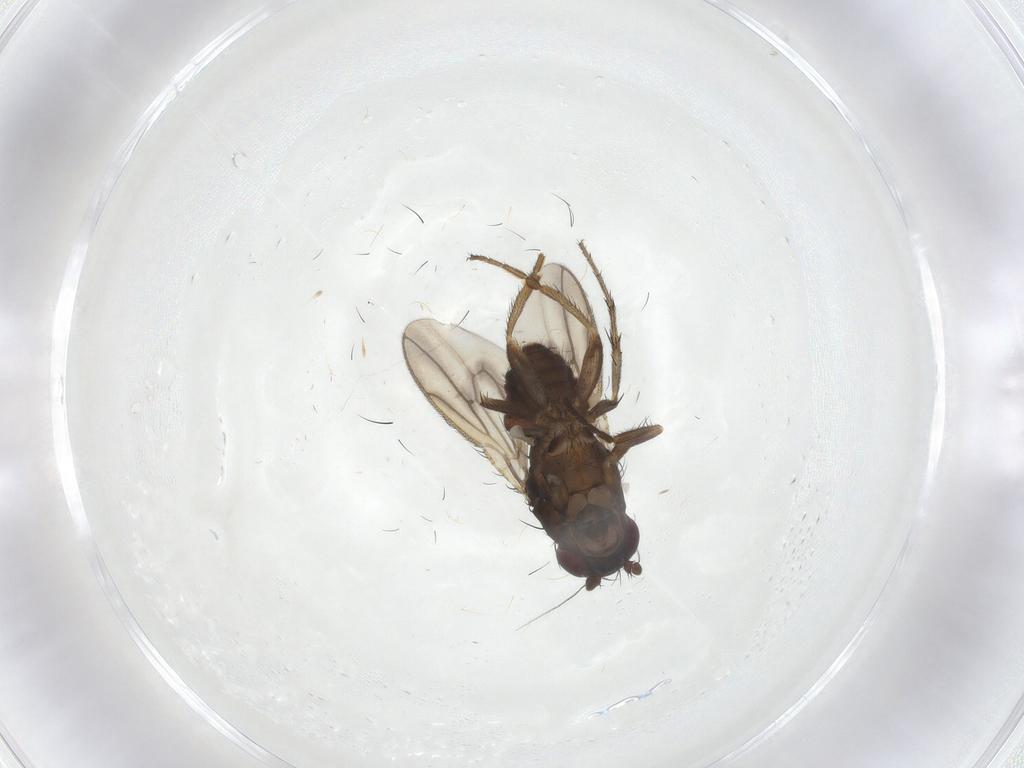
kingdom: Animalia
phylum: Arthropoda
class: Insecta
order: Diptera
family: Sphaeroceridae
